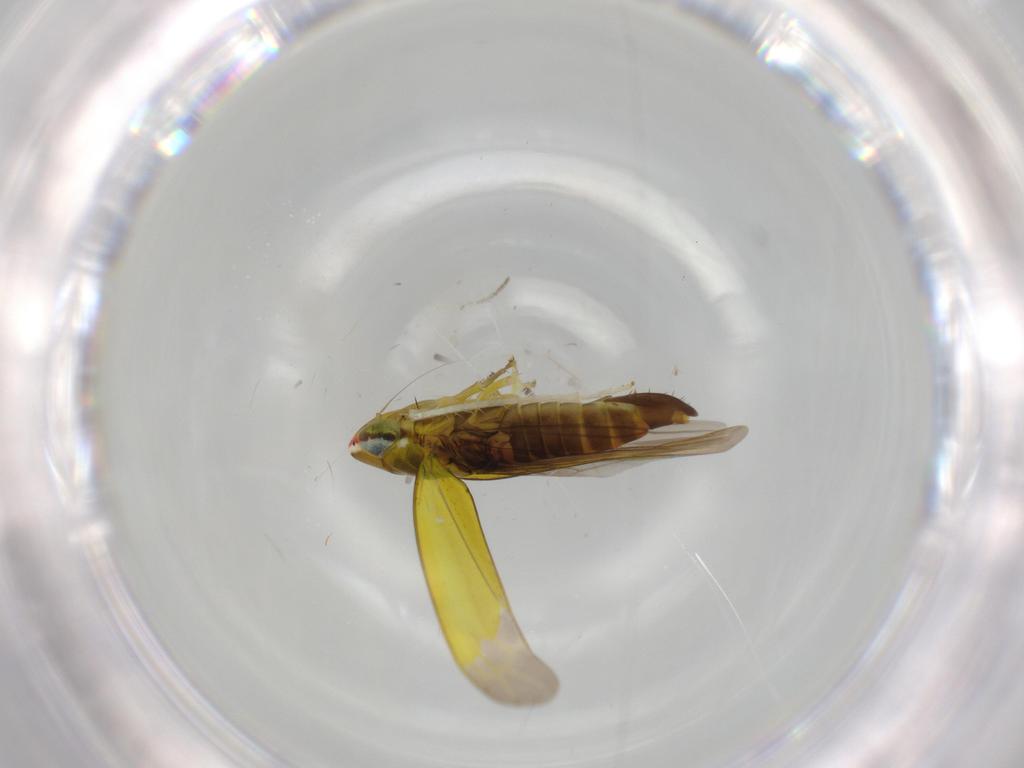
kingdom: Animalia
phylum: Arthropoda
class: Insecta
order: Hemiptera
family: Cicadellidae
